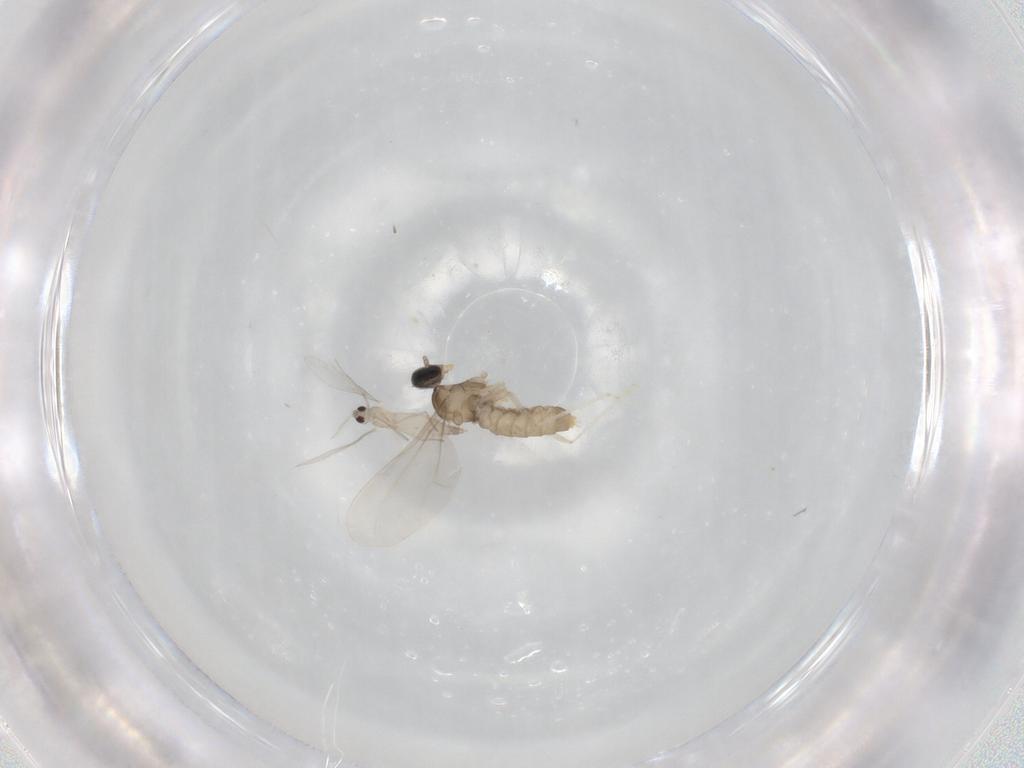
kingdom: Animalia
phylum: Arthropoda
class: Insecta
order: Diptera
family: Cecidomyiidae
